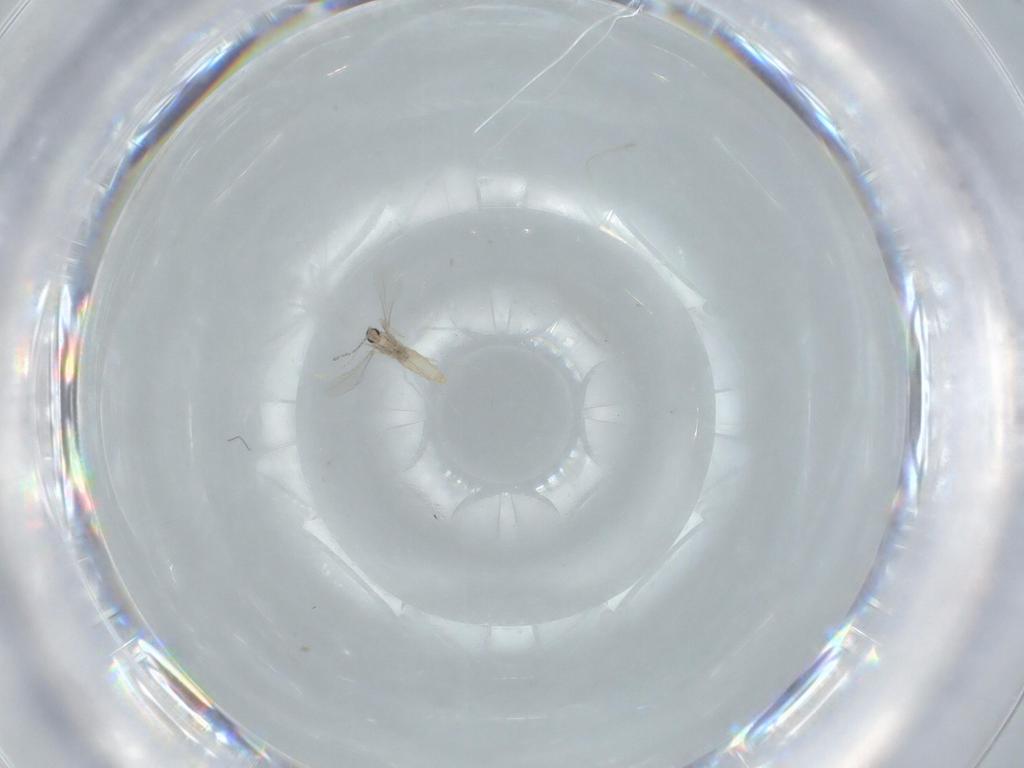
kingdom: Animalia
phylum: Arthropoda
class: Insecta
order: Diptera
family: Cecidomyiidae
